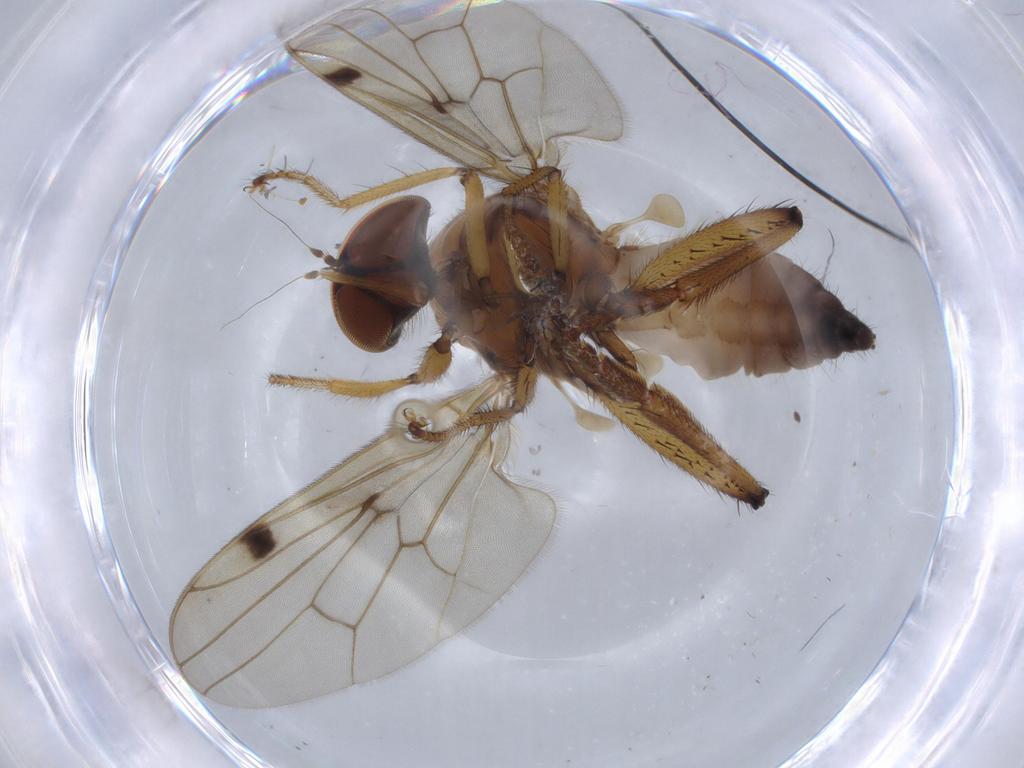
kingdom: Animalia
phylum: Arthropoda
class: Insecta
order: Diptera
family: Hybotidae
